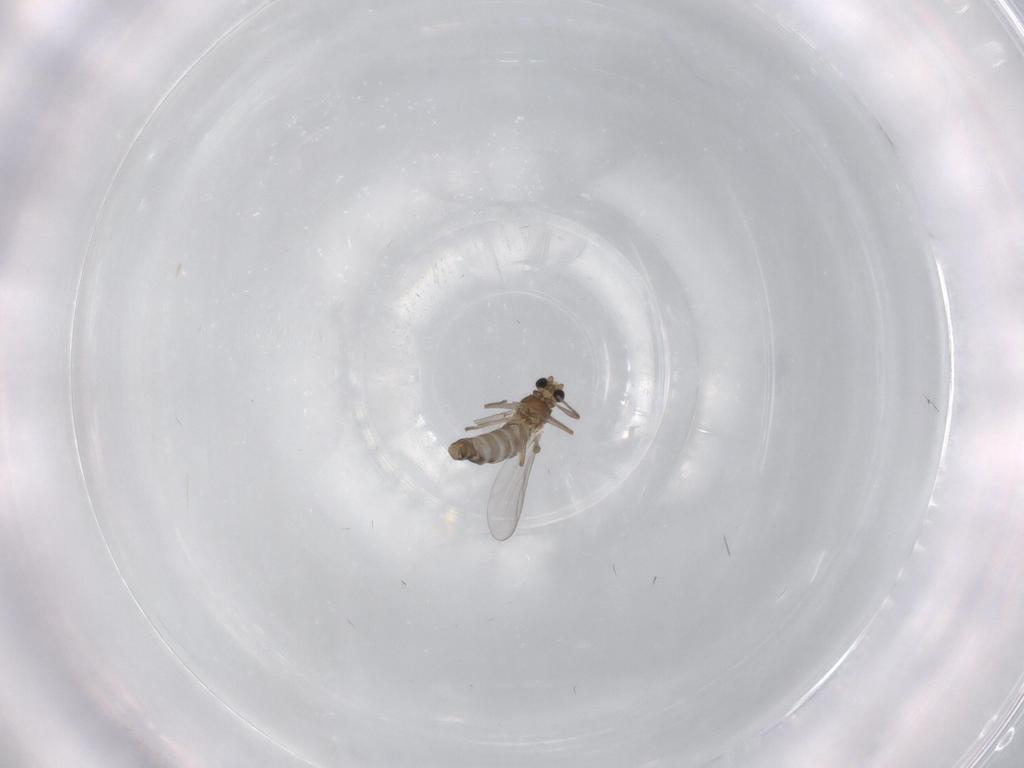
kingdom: Animalia
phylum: Arthropoda
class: Insecta
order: Diptera
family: Chironomidae
